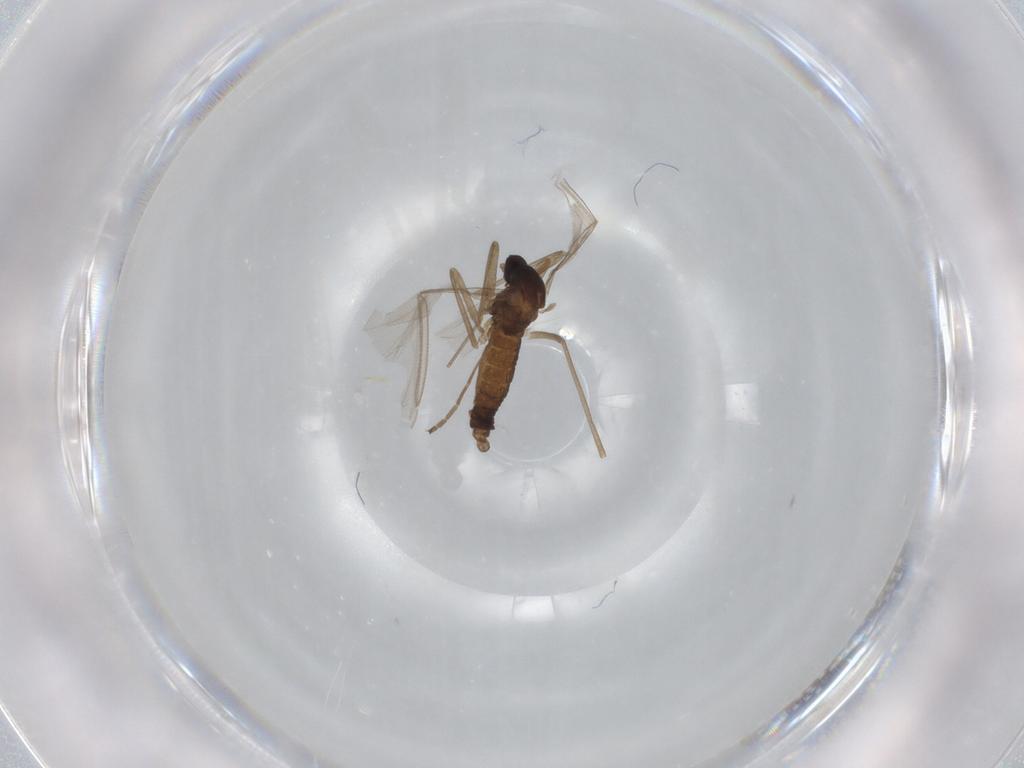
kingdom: Animalia
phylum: Arthropoda
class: Insecta
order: Diptera
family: Cecidomyiidae
